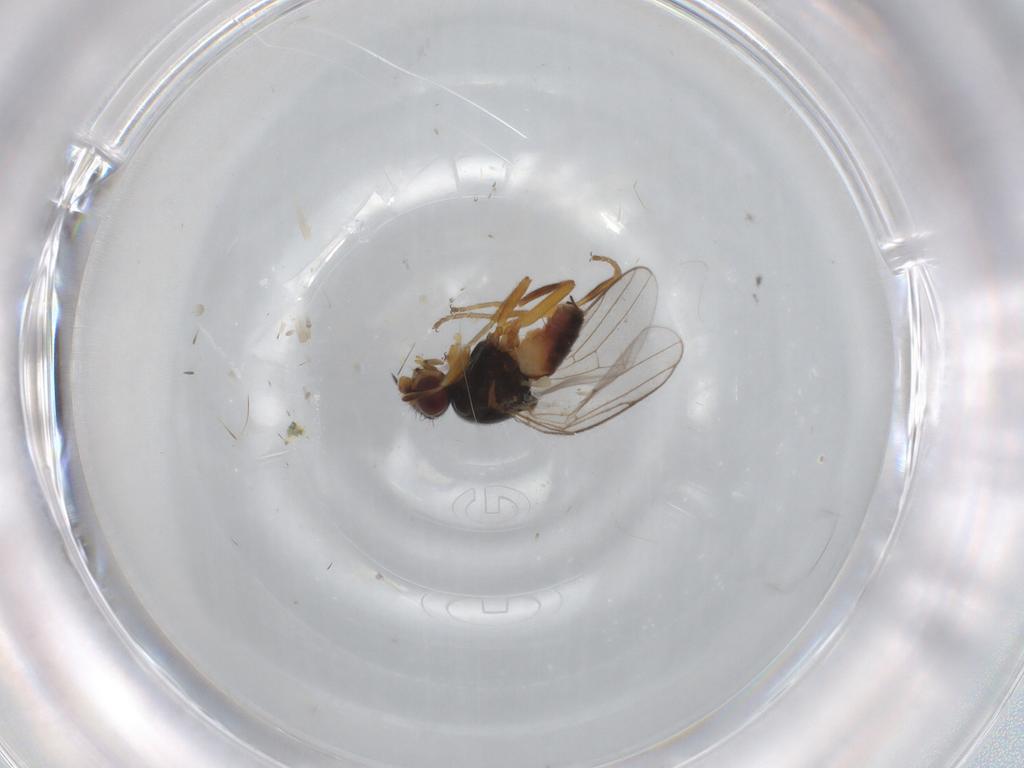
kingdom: Animalia
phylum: Arthropoda
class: Insecta
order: Diptera
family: Chloropidae
